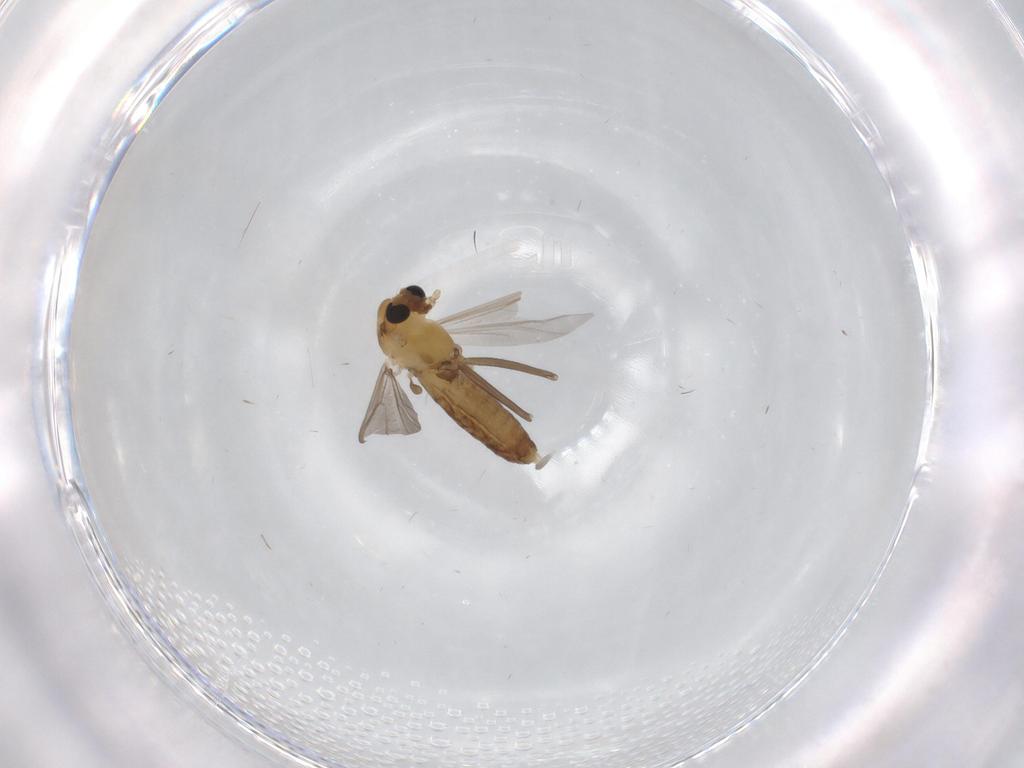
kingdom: Animalia
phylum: Arthropoda
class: Insecta
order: Diptera
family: Chironomidae
